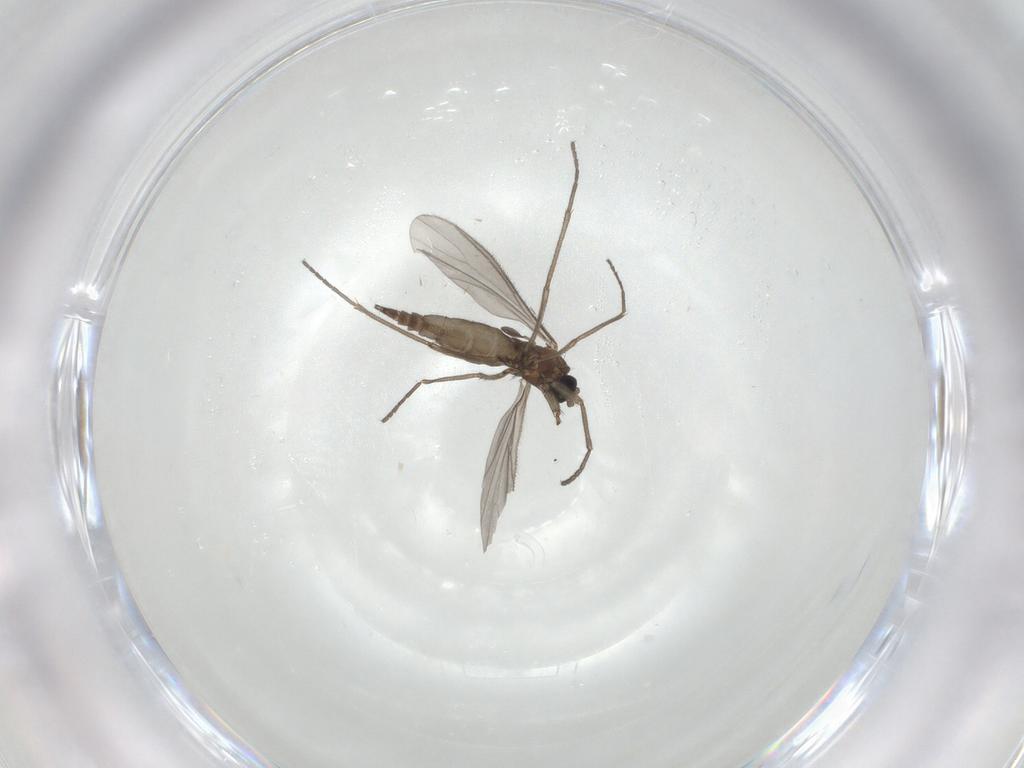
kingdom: Animalia
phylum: Arthropoda
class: Insecta
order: Diptera
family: Sciaridae
